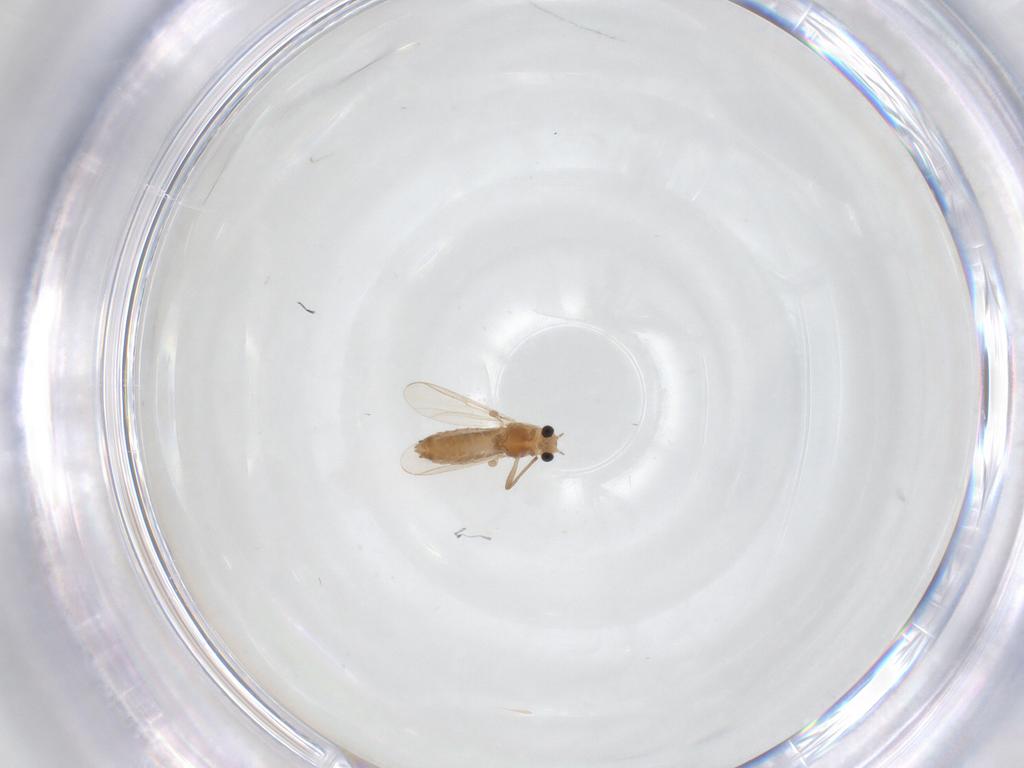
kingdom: Animalia
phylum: Arthropoda
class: Insecta
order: Diptera
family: Chironomidae
